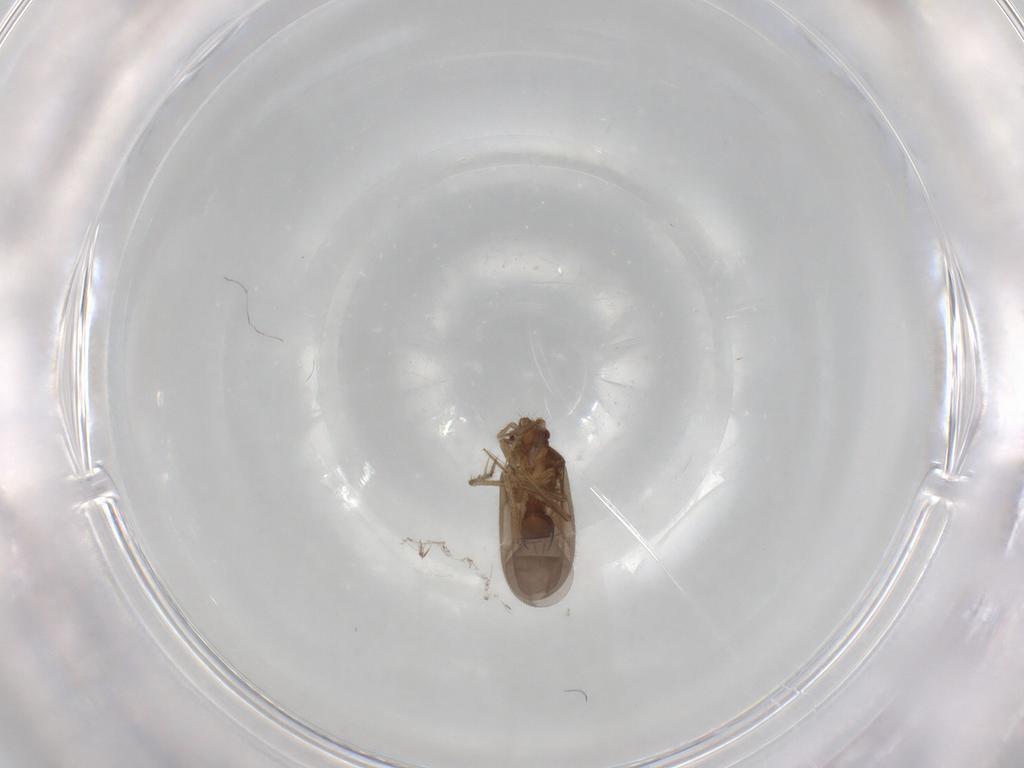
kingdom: Animalia
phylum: Arthropoda
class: Insecta
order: Hemiptera
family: Ceratocombidae
